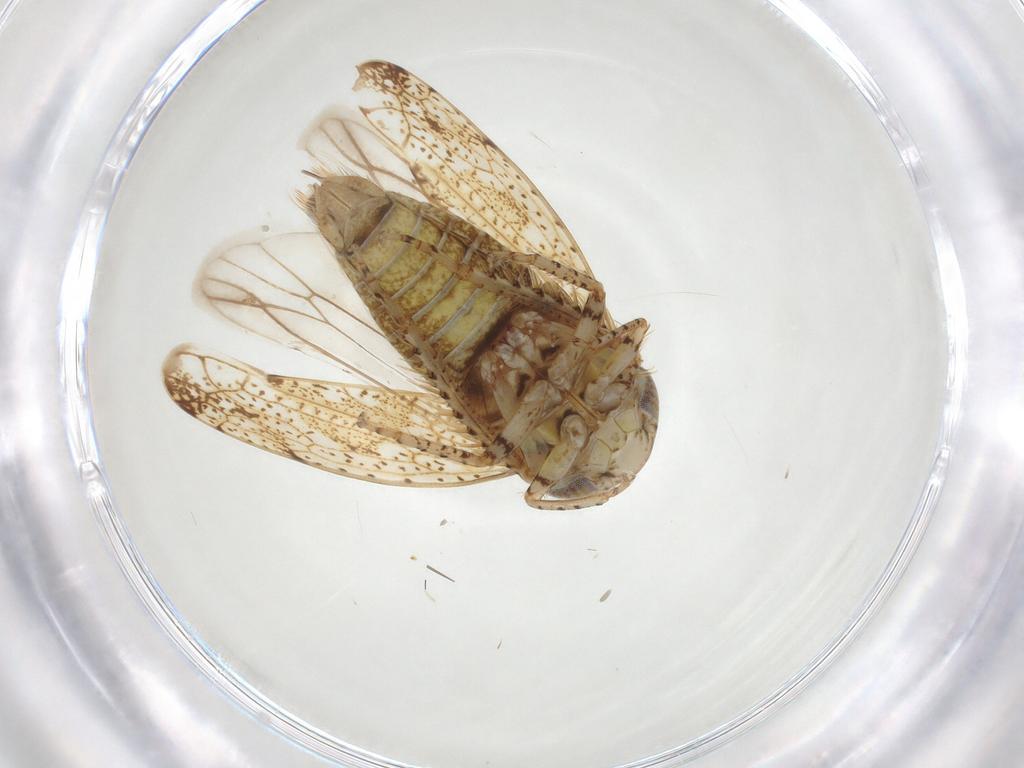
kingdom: Animalia
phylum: Arthropoda
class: Insecta
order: Hemiptera
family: Cicadellidae
